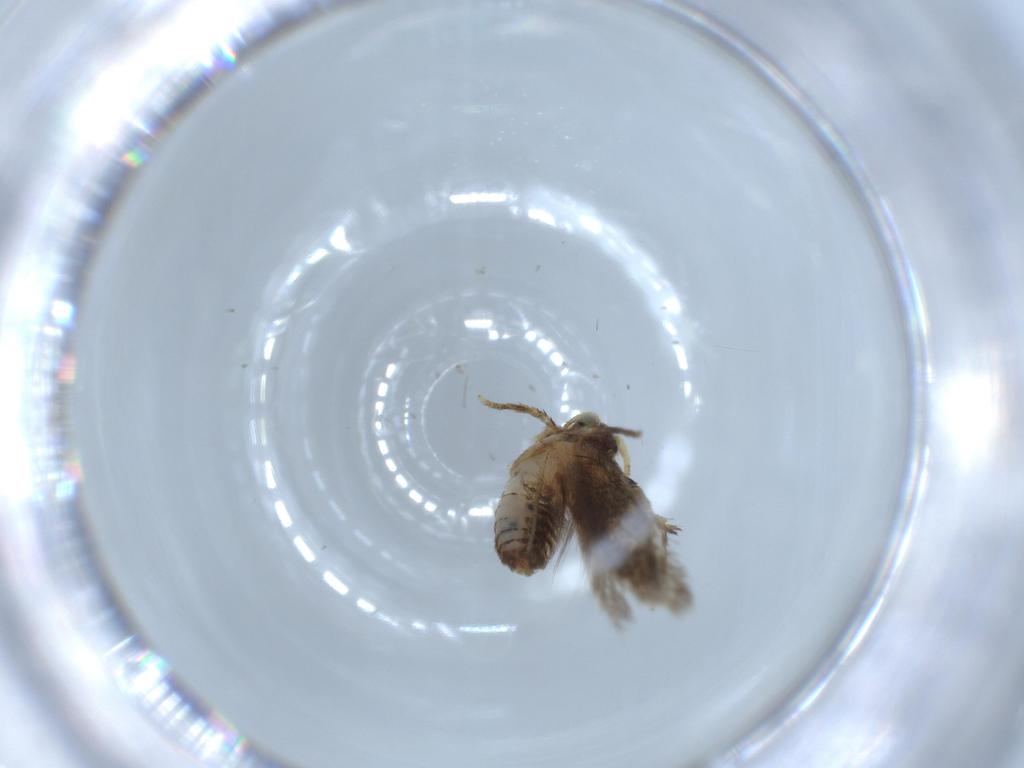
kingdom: Animalia
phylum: Arthropoda
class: Insecta
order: Lepidoptera
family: Nepticulidae
